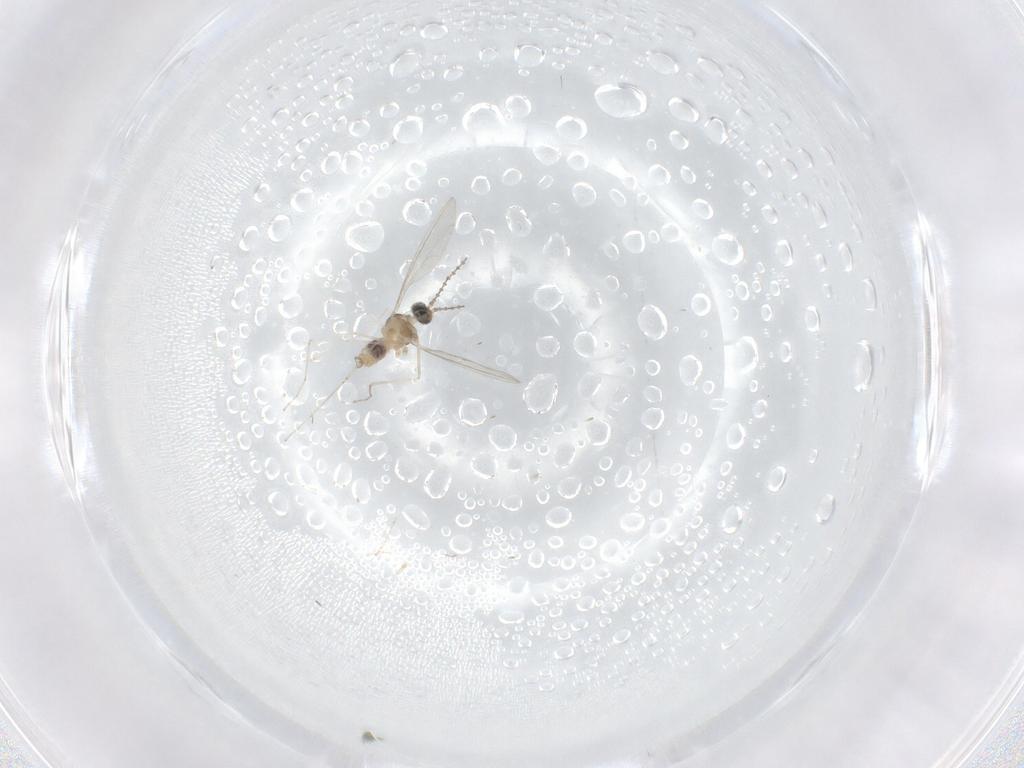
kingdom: Animalia
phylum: Arthropoda
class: Insecta
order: Diptera
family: Cecidomyiidae
